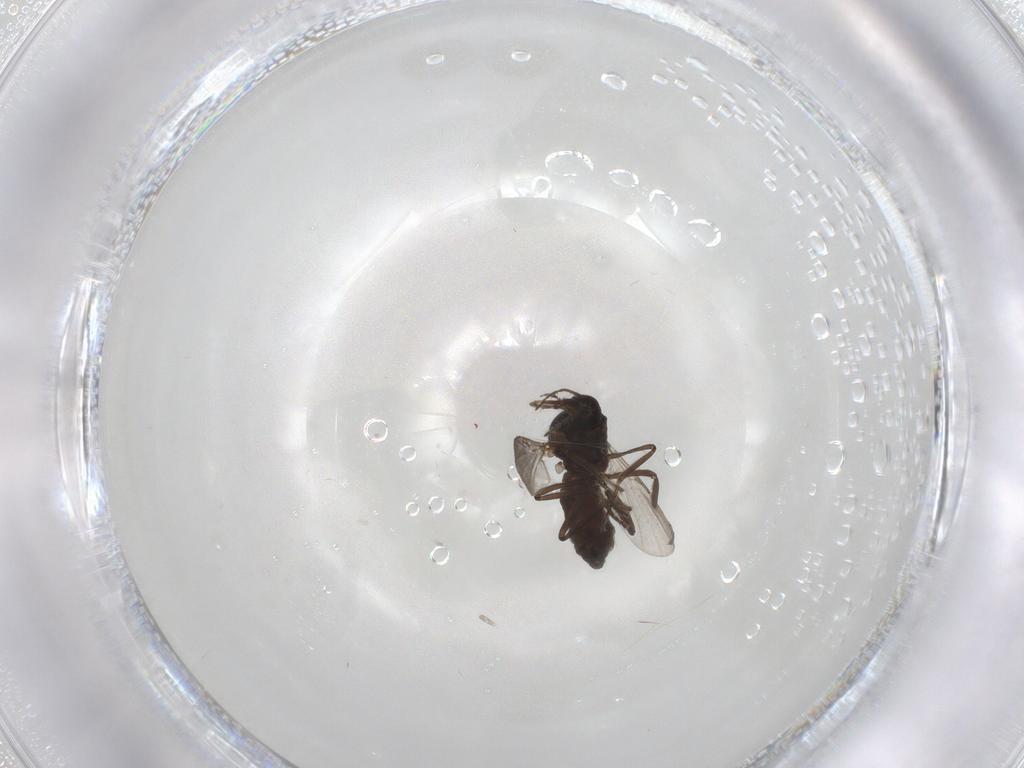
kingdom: Animalia
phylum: Arthropoda
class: Insecta
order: Diptera
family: Ceratopogonidae
